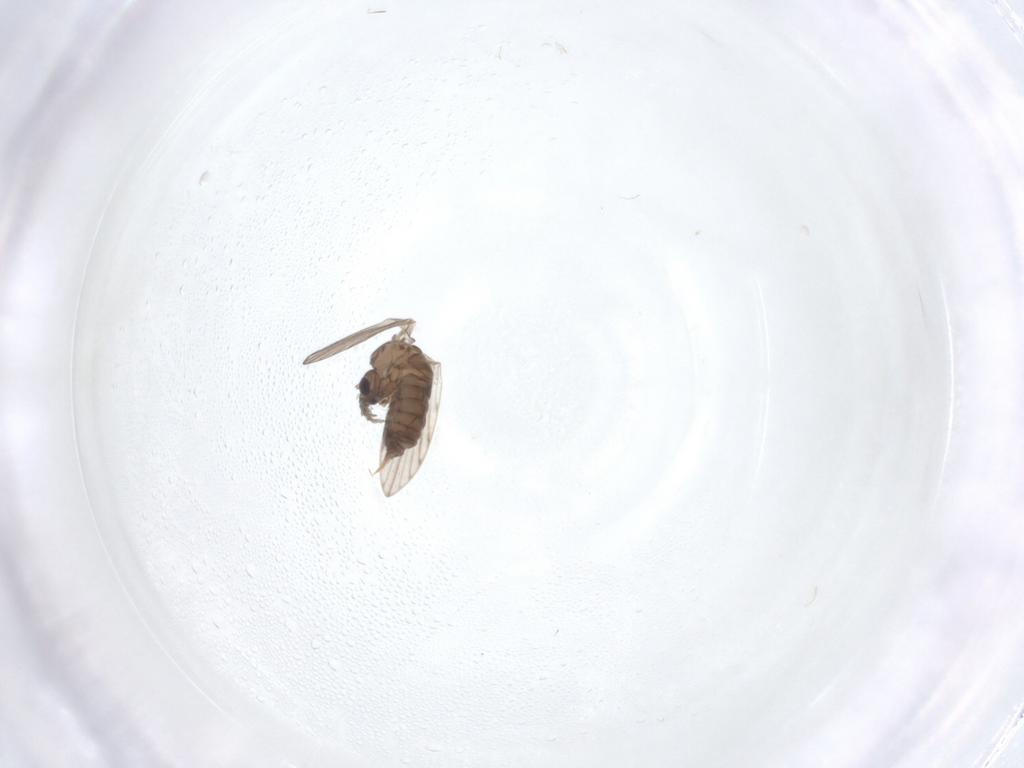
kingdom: Animalia
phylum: Arthropoda
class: Insecta
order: Diptera
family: Psychodidae
